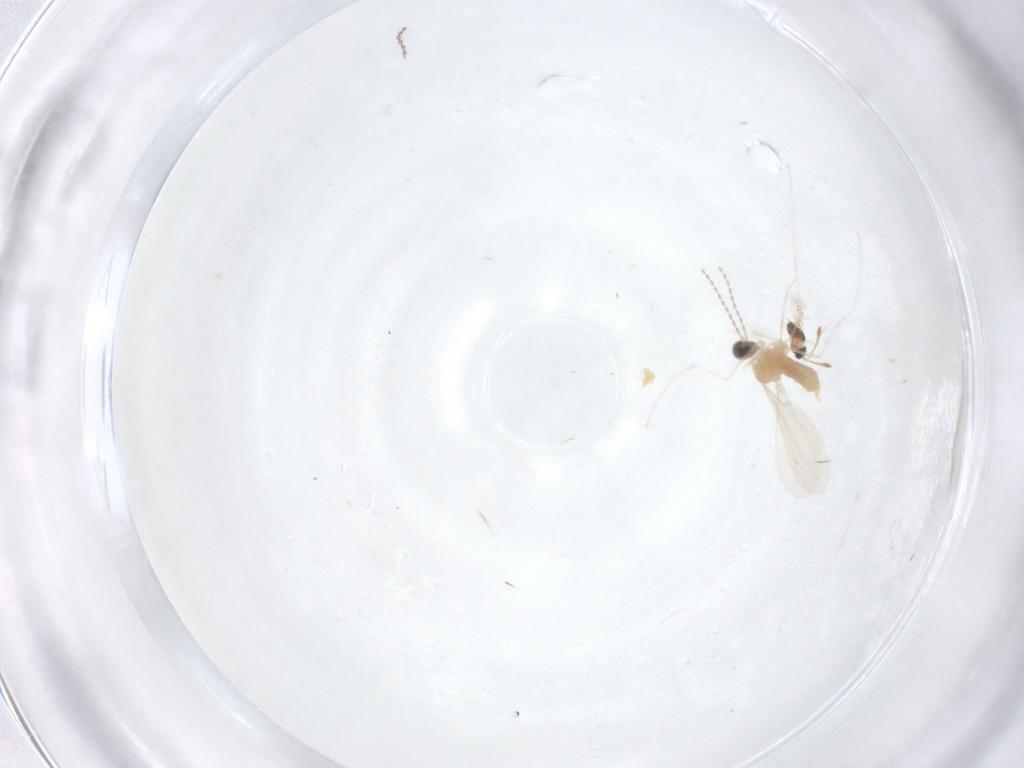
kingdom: Animalia
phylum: Arthropoda
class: Insecta
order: Diptera
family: Cecidomyiidae
